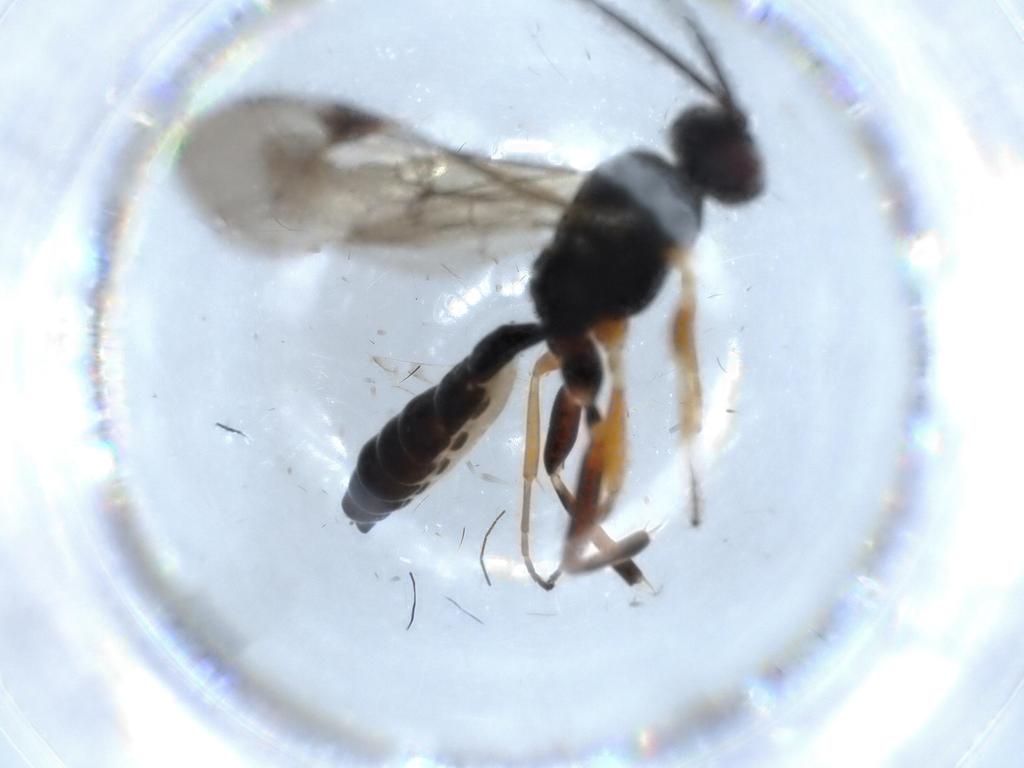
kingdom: Animalia
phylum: Arthropoda
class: Insecta
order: Hymenoptera
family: Ichneumonidae
